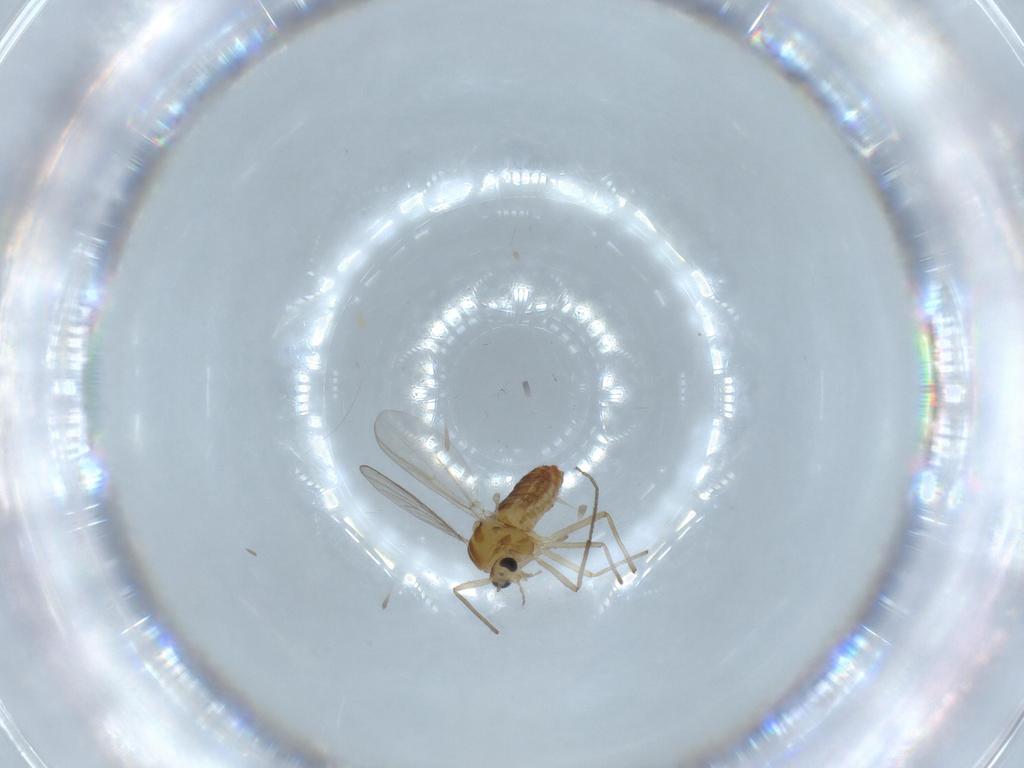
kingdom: Animalia
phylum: Arthropoda
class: Insecta
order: Diptera
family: Chironomidae
